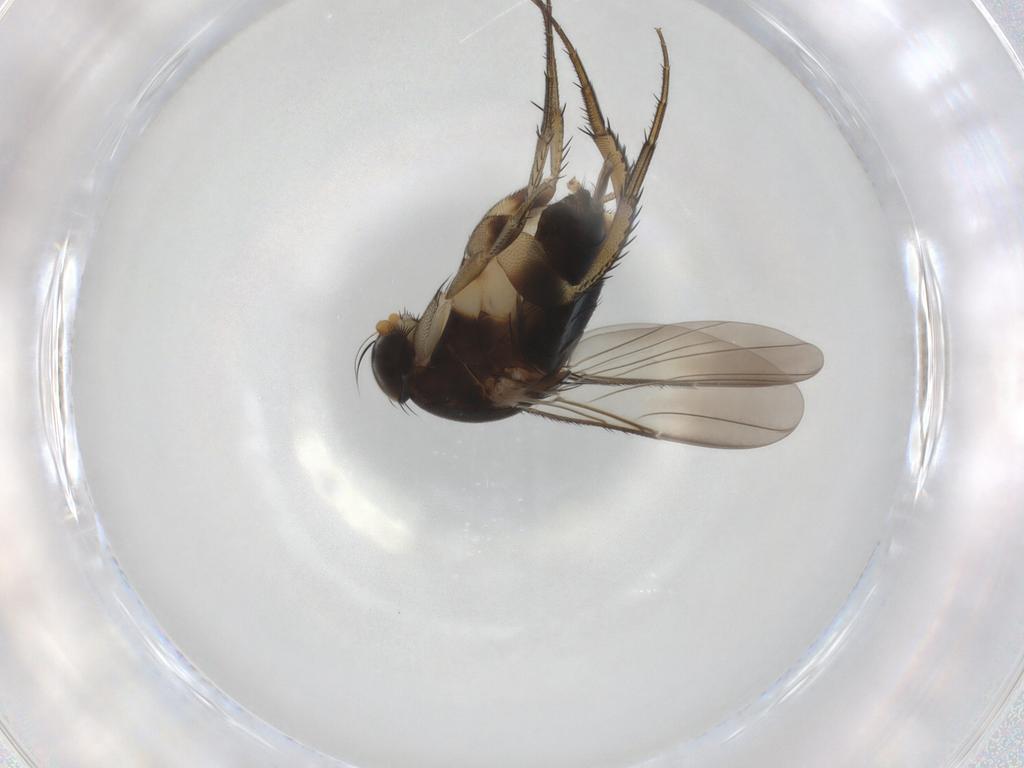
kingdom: Animalia
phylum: Arthropoda
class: Insecta
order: Diptera
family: Phoridae
